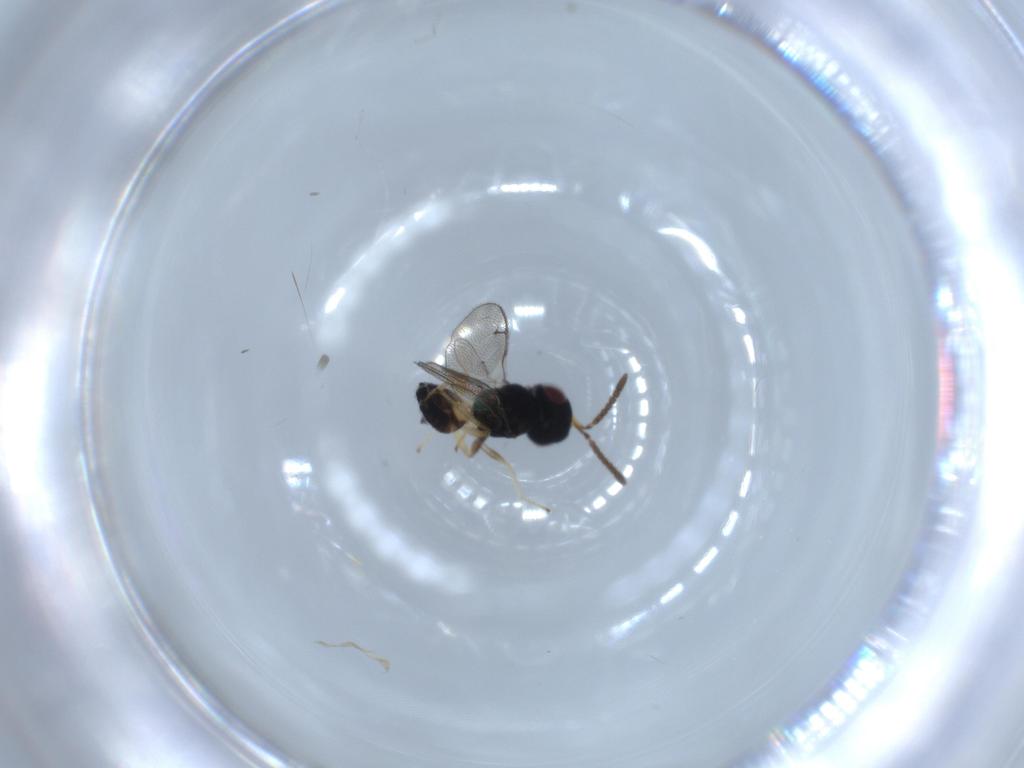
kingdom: Animalia
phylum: Arthropoda
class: Insecta
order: Hymenoptera
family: Pteromalidae
